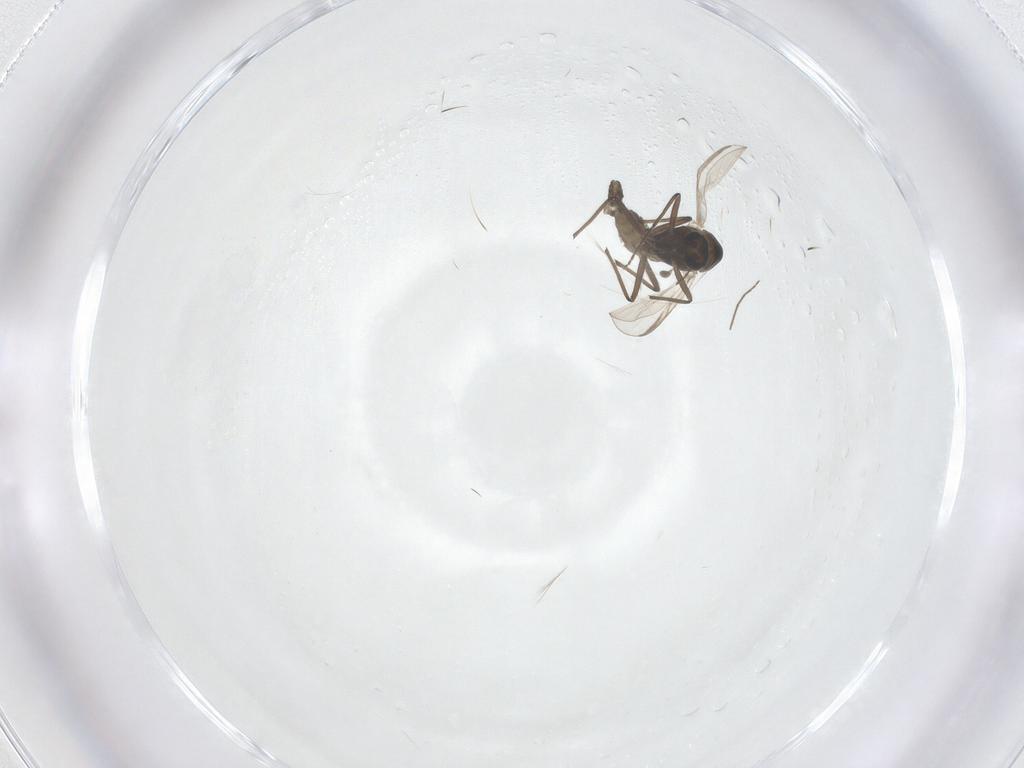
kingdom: Animalia
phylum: Arthropoda
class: Insecta
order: Diptera
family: Chironomidae
